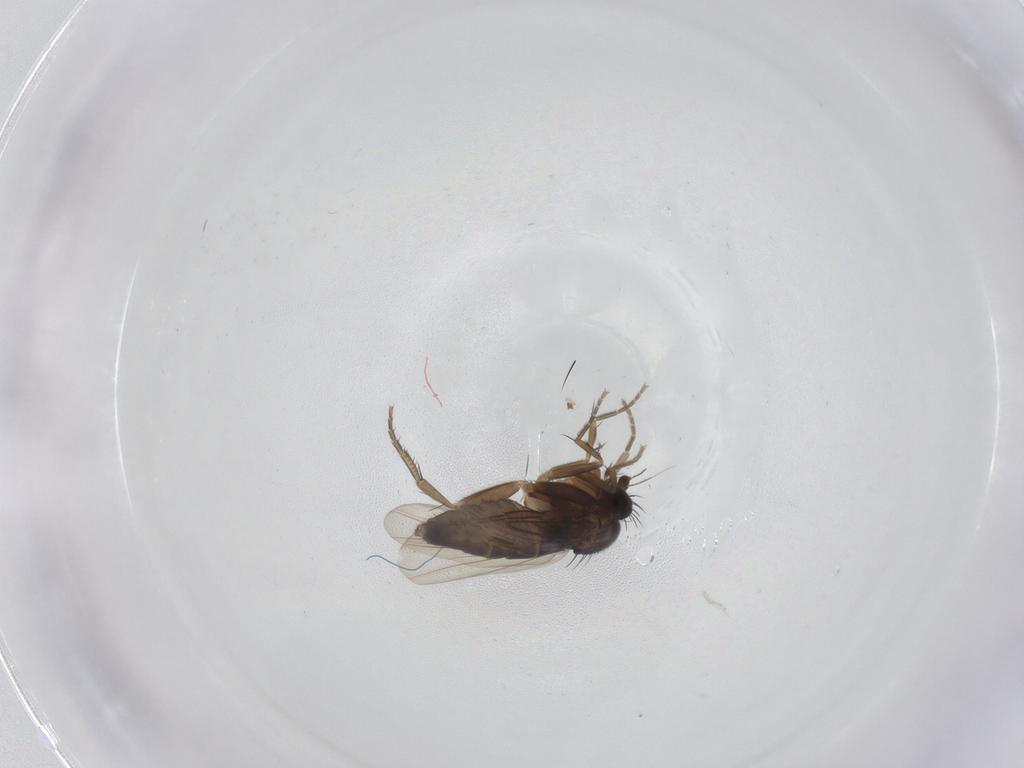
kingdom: Animalia
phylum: Arthropoda
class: Insecta
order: Diptera
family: Phoridae
